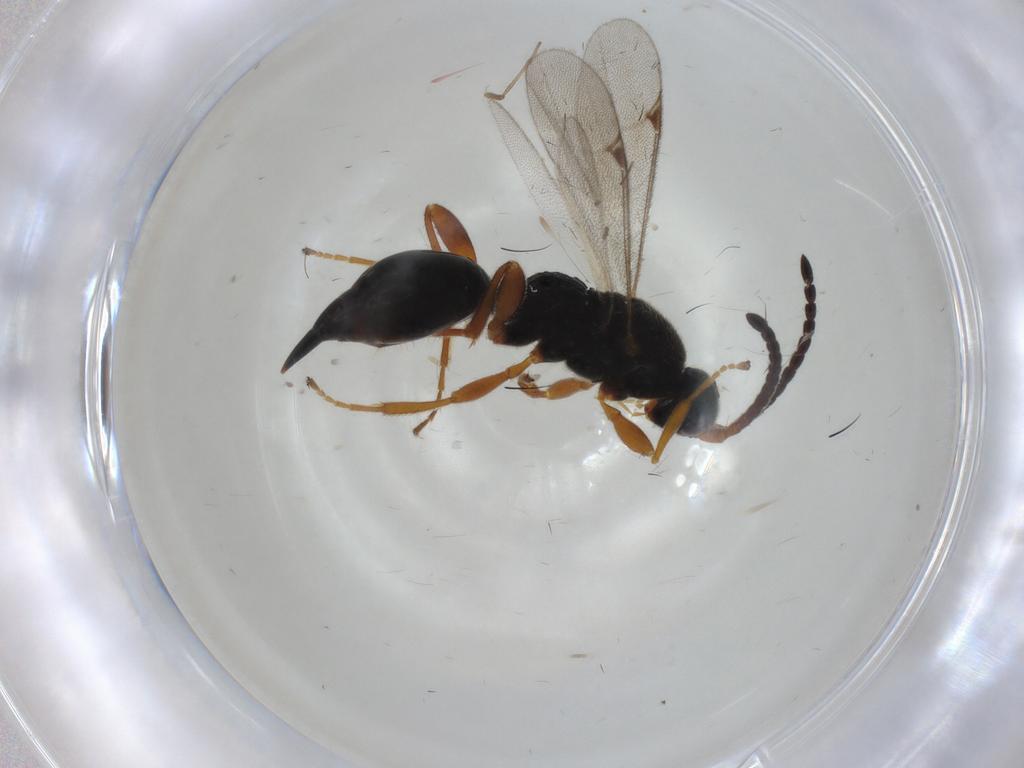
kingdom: Animalia
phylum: Arthropoda
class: Insecta
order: Hymenoptera
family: Proctotrupidae
